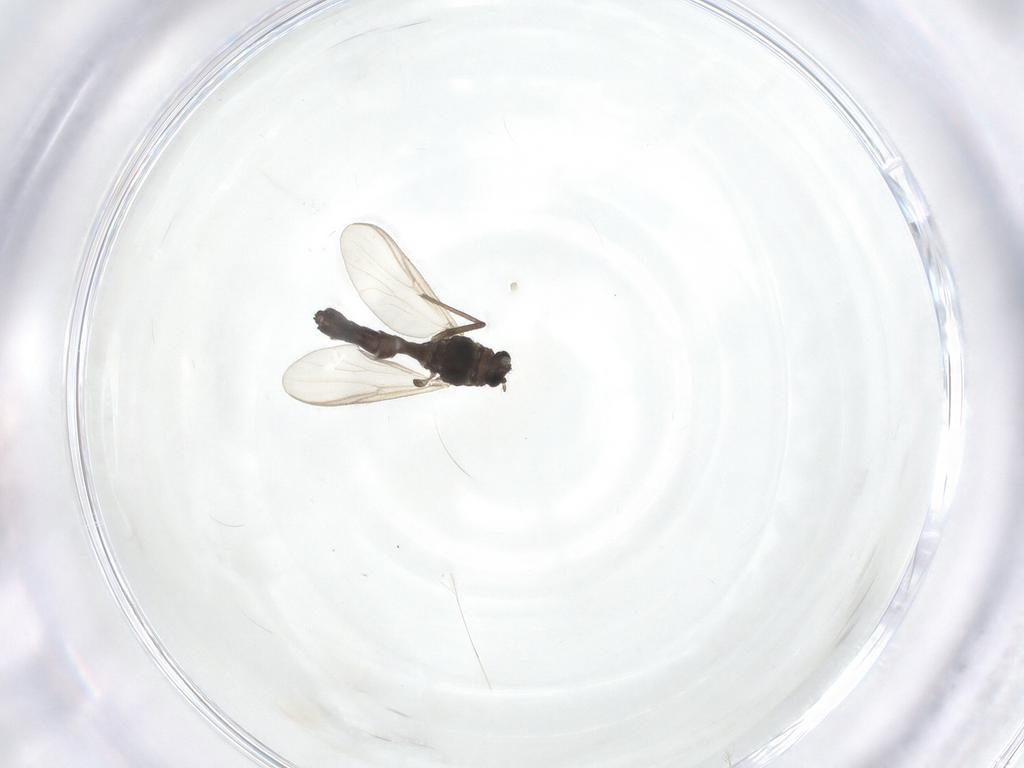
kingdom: Animalia
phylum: Arthropoda
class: Insecta
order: Diptera
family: Chironomidae
